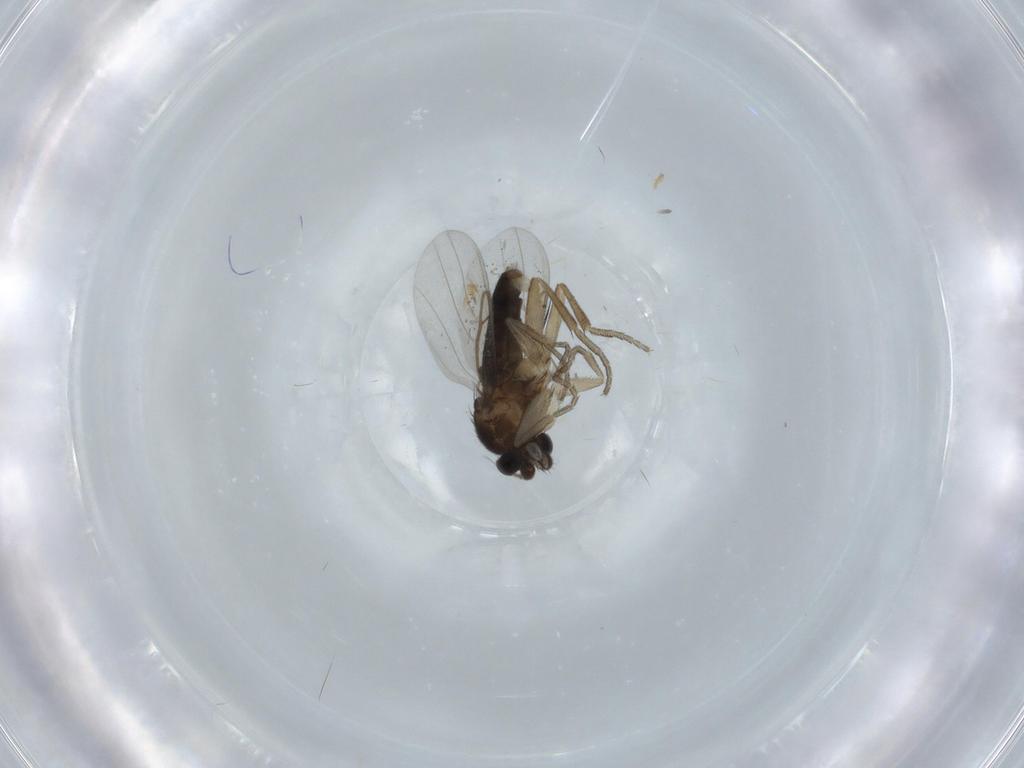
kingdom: Animalia
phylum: Arthropoda
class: Insecta
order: Diptera
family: Phoridae
